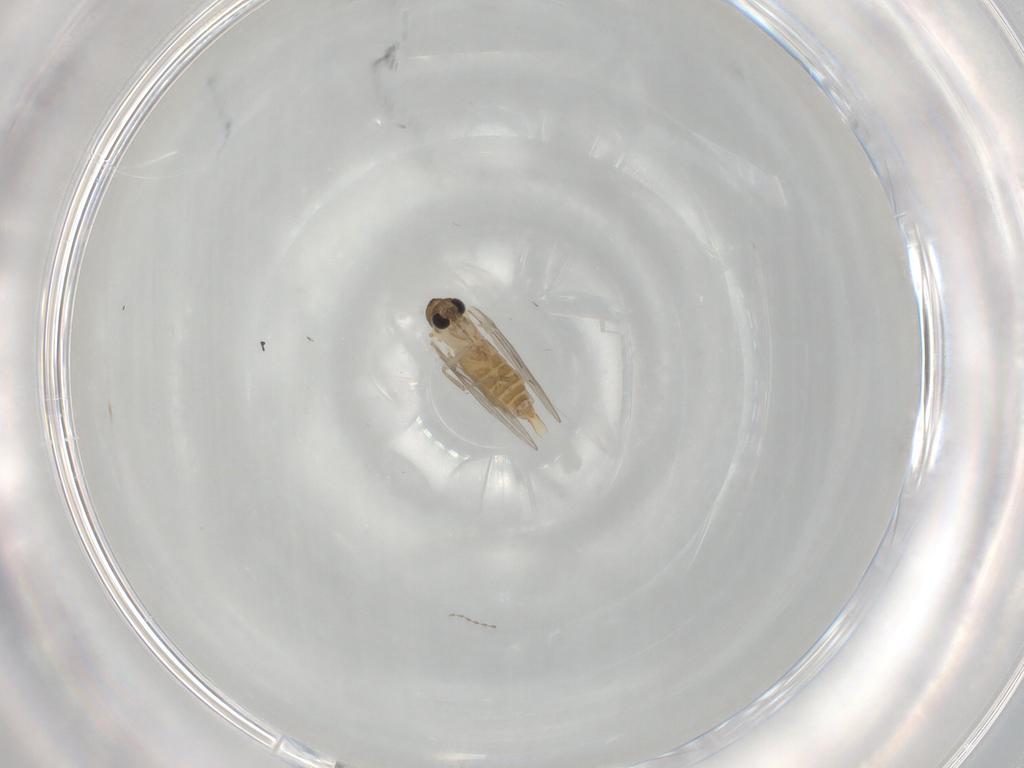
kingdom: Animalia
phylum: Arthropoda
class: Insecta
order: Diptera
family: Psychodidae
